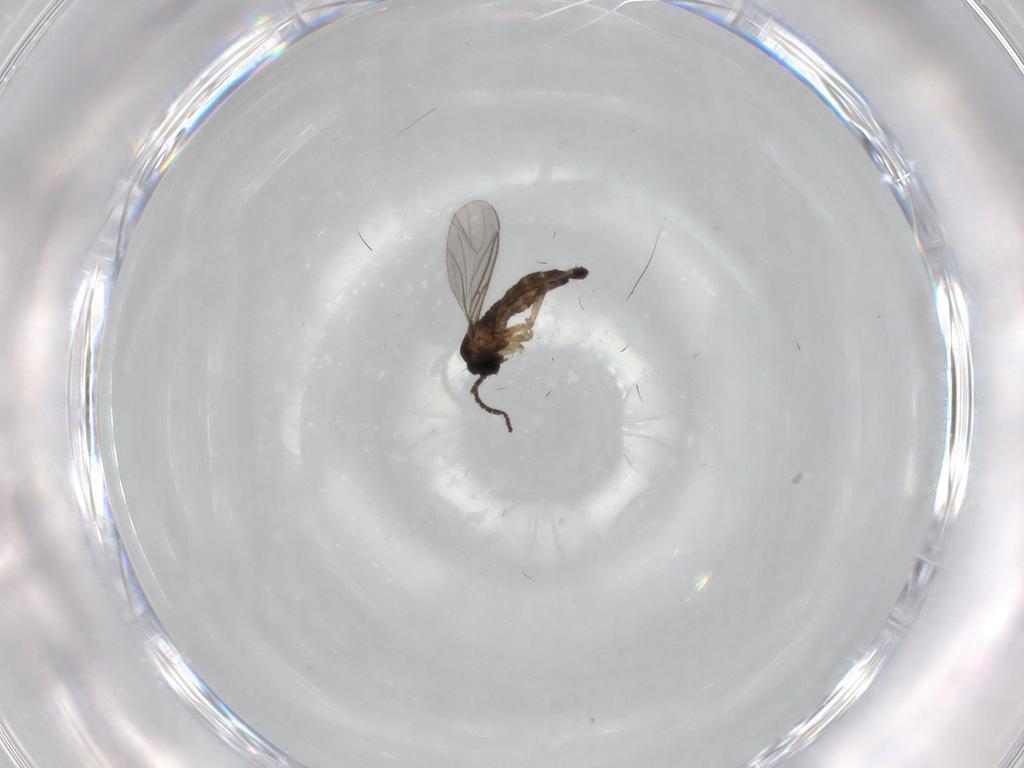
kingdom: Animalia
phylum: Arthropoda
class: Insecta
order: Diptera
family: Sciaridae
